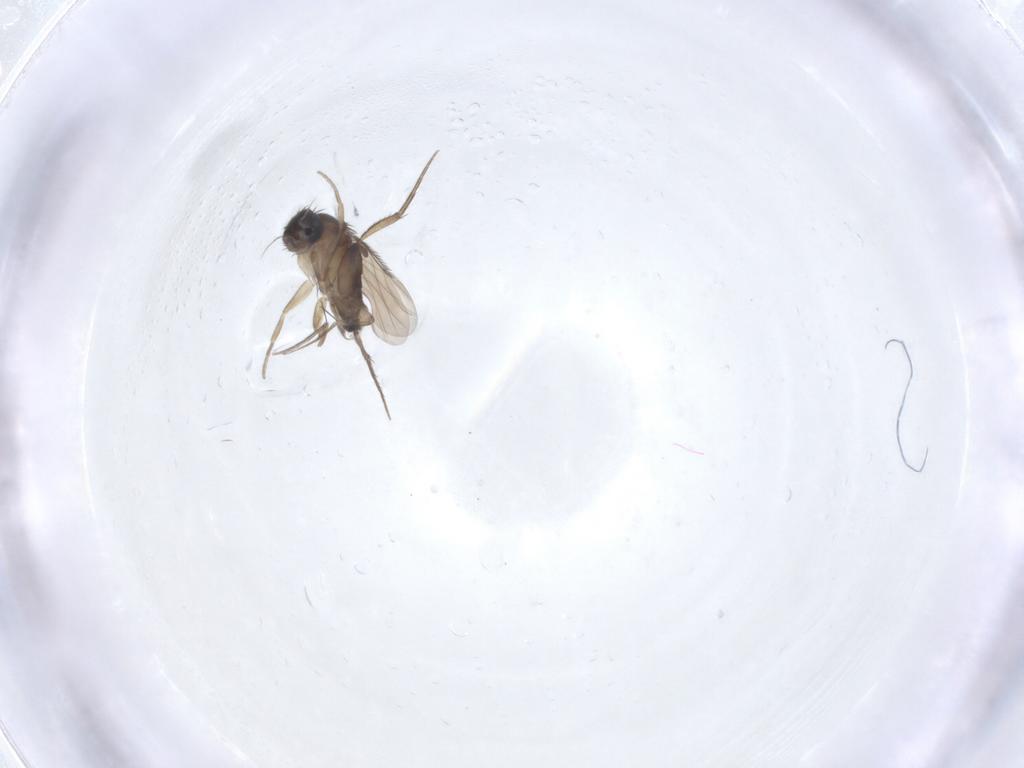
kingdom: Animalia
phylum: Arthropoda
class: Insecta
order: Diptera
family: Phoridae
